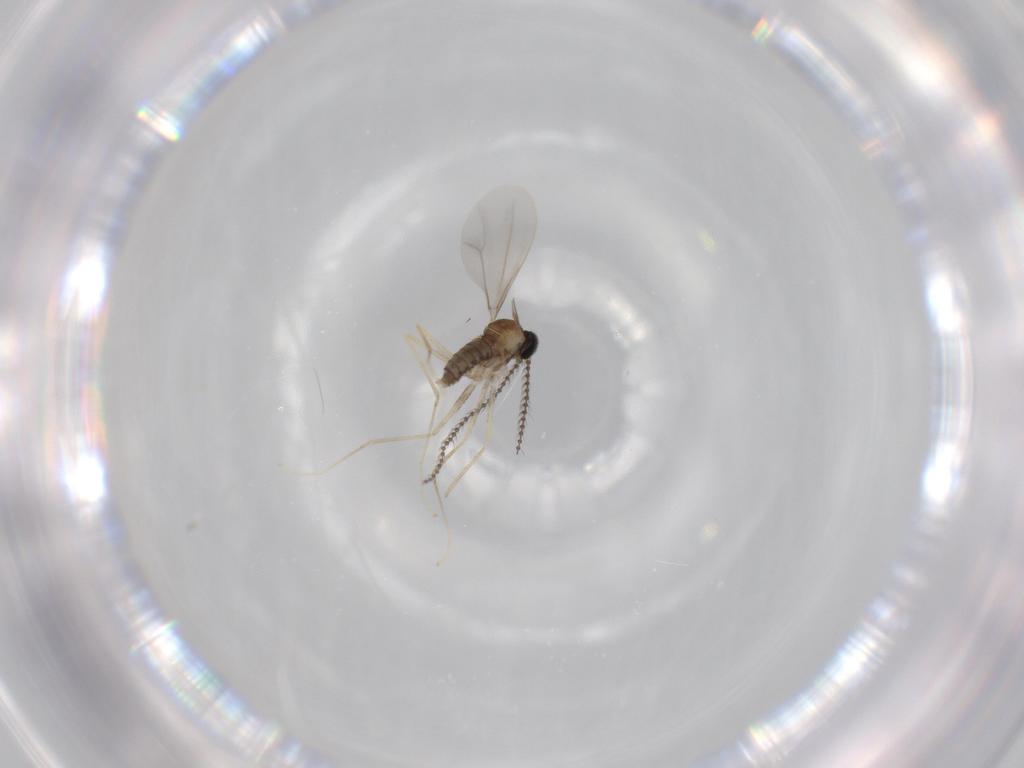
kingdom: Animalia
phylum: Arthropoda
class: Insecta
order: Diptera
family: Cecidomyiidae
